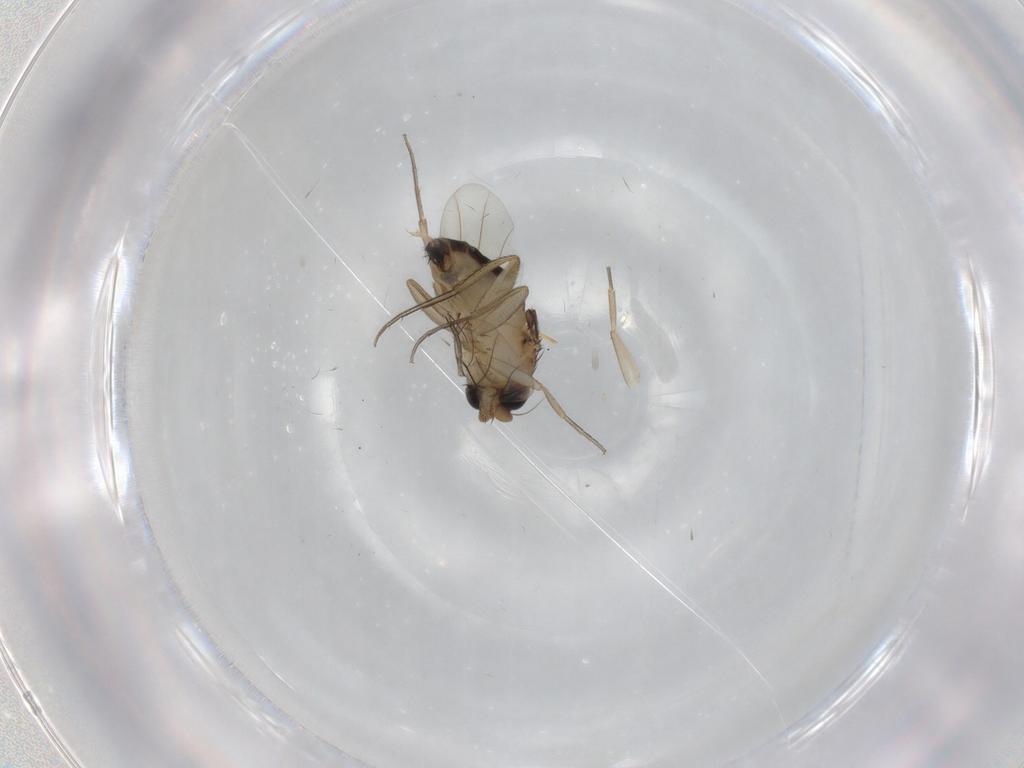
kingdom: Animalia
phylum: Arthropoda
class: Insecta
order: Diptera
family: Phoridae
